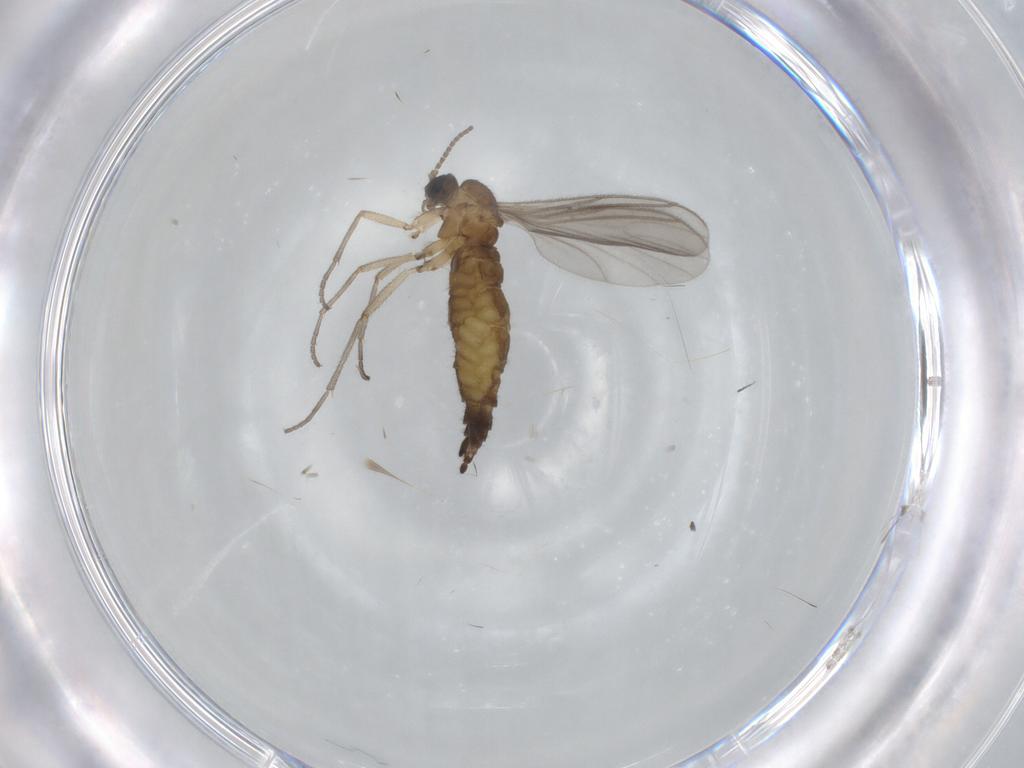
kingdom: Animalia
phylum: Arthropoda
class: Insecta
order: Diptera
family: Sciaridae
